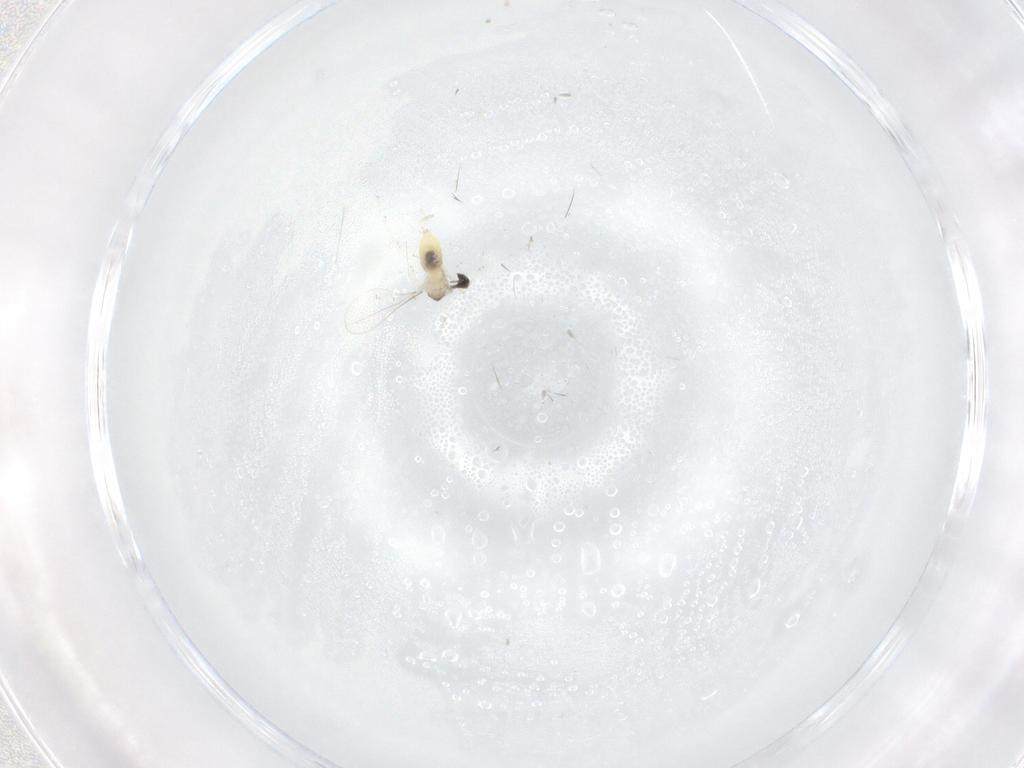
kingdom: Animalia
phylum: Arthropoda
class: Insecta
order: Diptera
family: Cecidomyiidae
